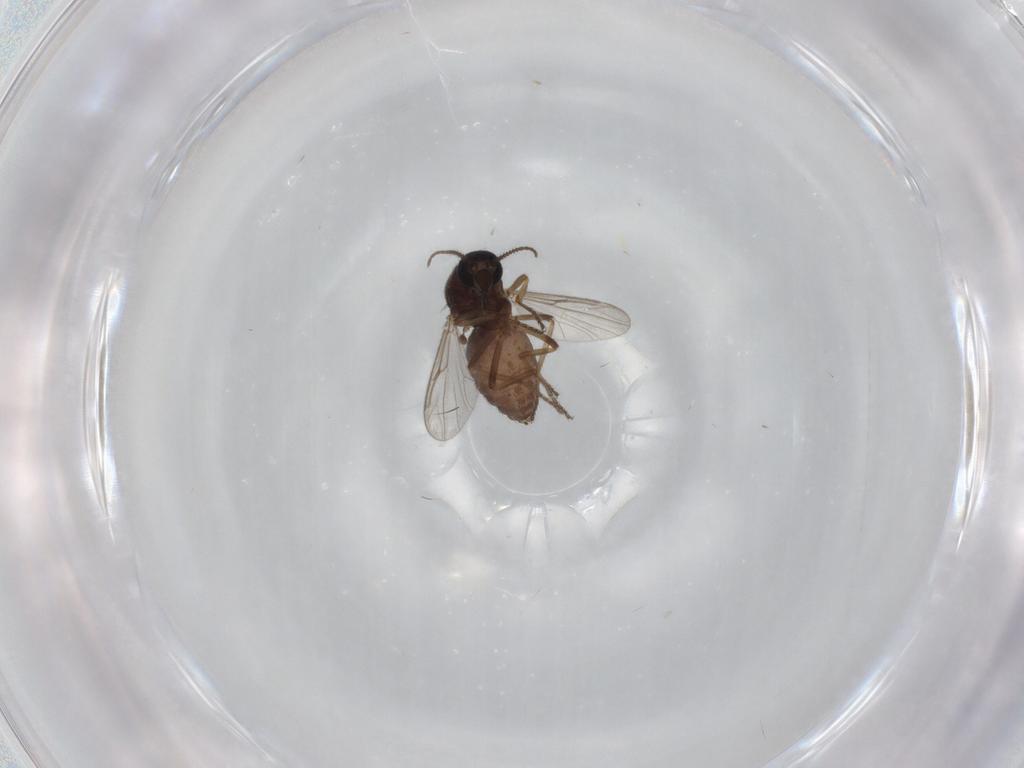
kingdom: Animalia
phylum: Arthropoda
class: Insecta
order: Diptera
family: Ceratopogonidae
